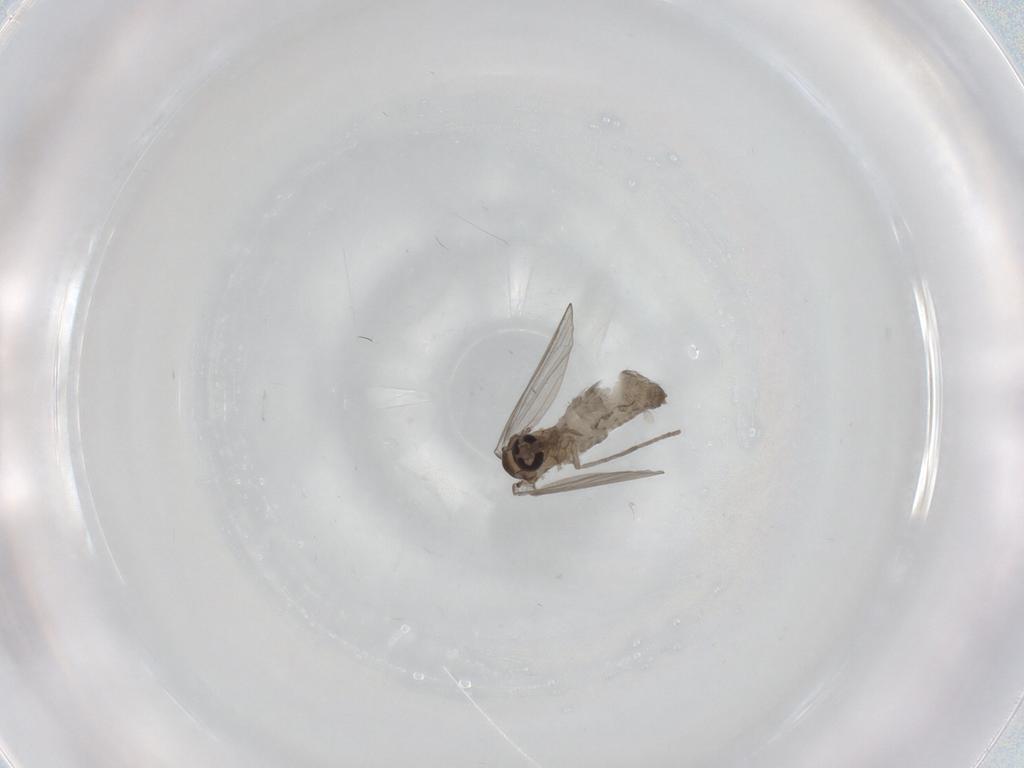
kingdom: Animalia
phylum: Arthropoda
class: Insecta
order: Diptera
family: Psychodidae
